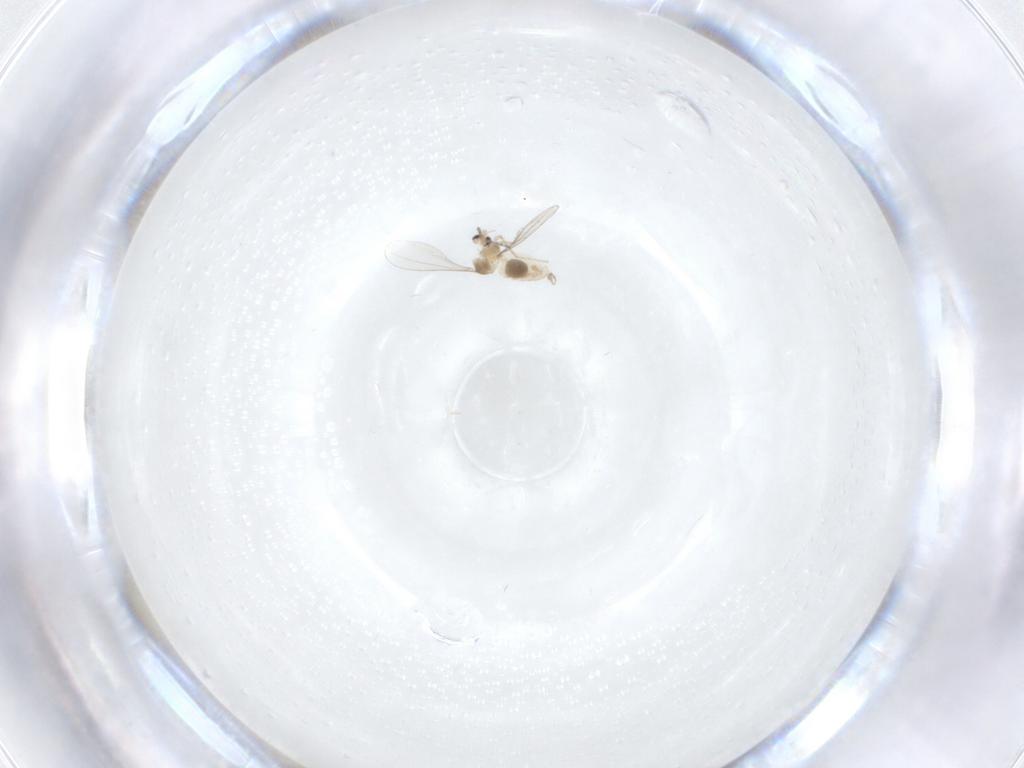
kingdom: Animalia
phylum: Arthropoda
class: Insecta
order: Diptera
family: Cecidomyiidae
